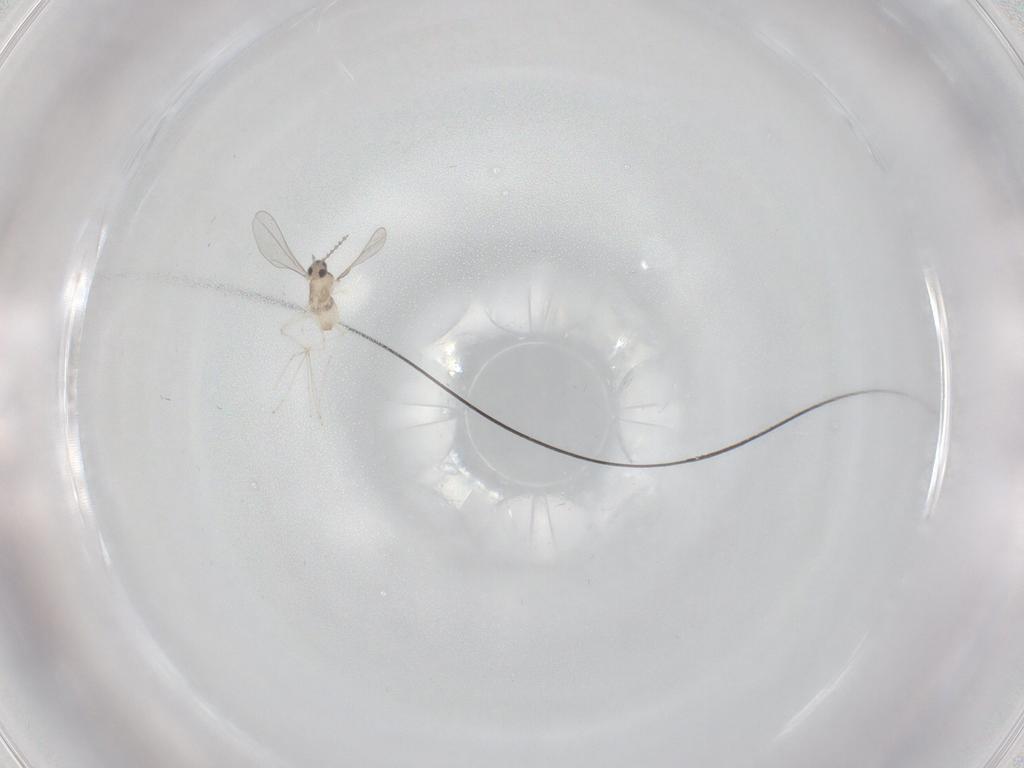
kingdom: Animalia
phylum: Arthropoda
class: Insecta
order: Diptera
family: Cecidomyiidae
